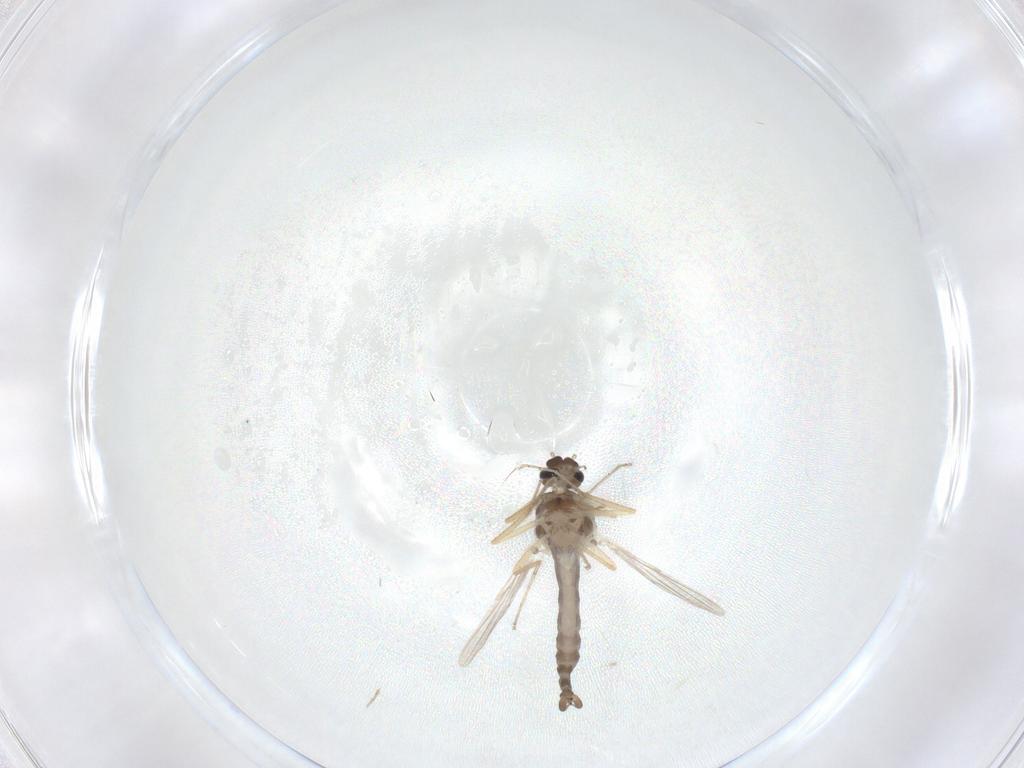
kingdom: Animalia
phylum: Arthropoda
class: Insecta
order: Diptera
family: Ceratopogonidae
